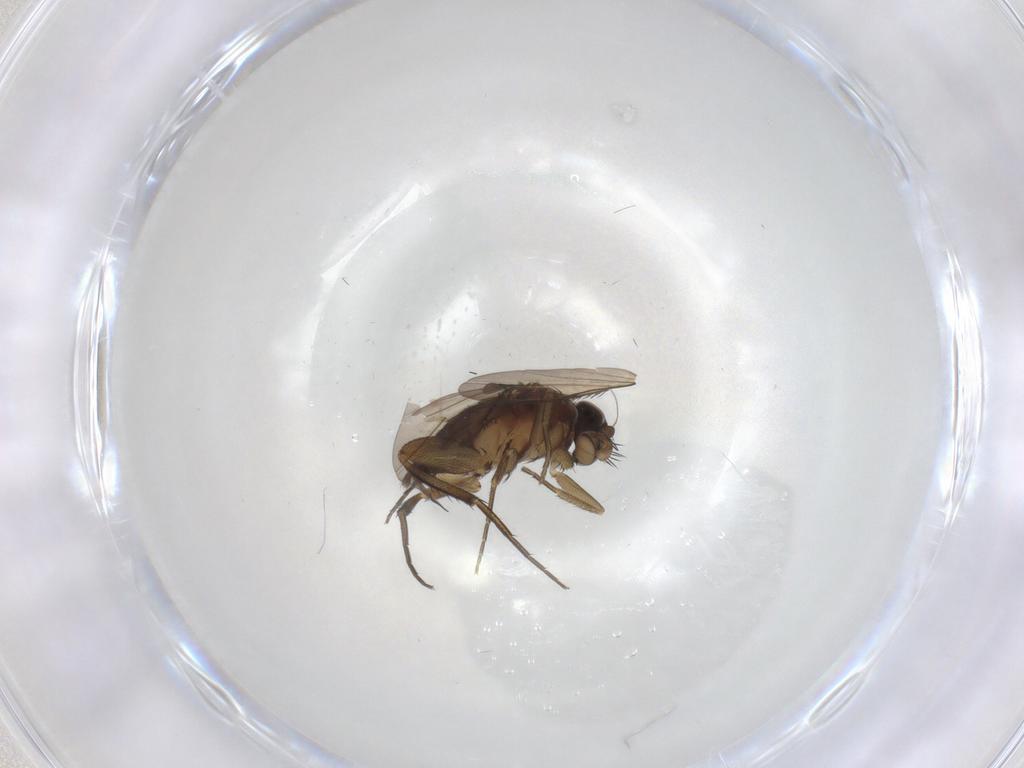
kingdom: Animalia
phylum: Arthropoda
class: Insecta
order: Diptera
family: Phoridae
